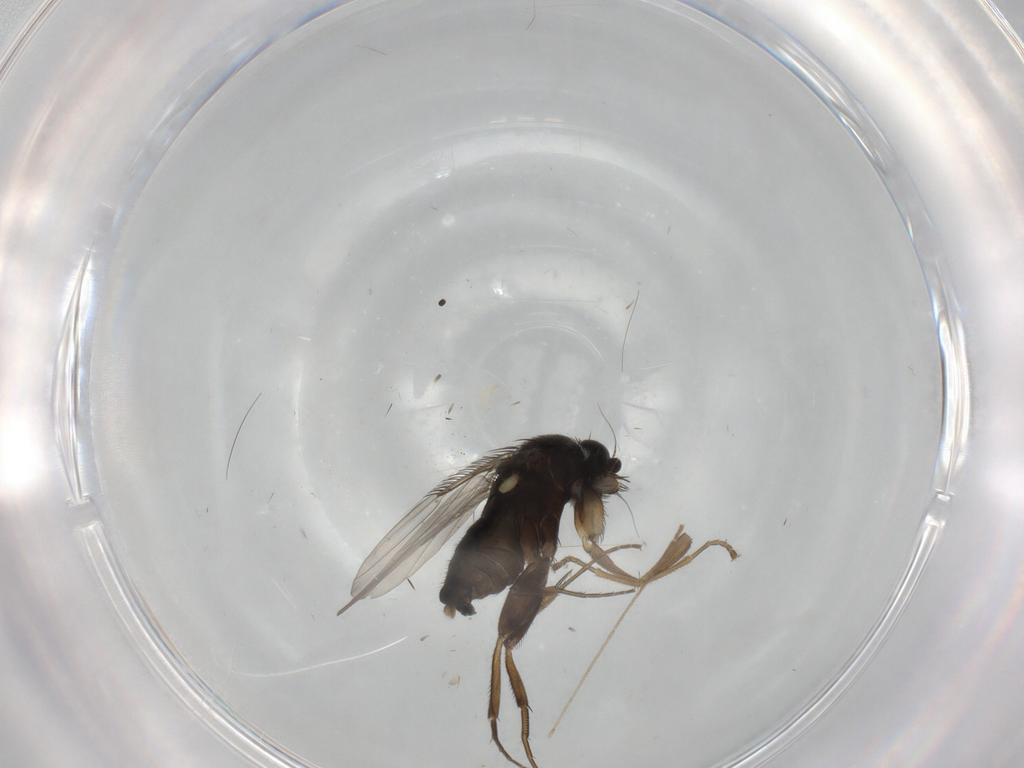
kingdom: Animalia
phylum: Arthropoda
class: Insecta
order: Diptera
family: Phoridae
